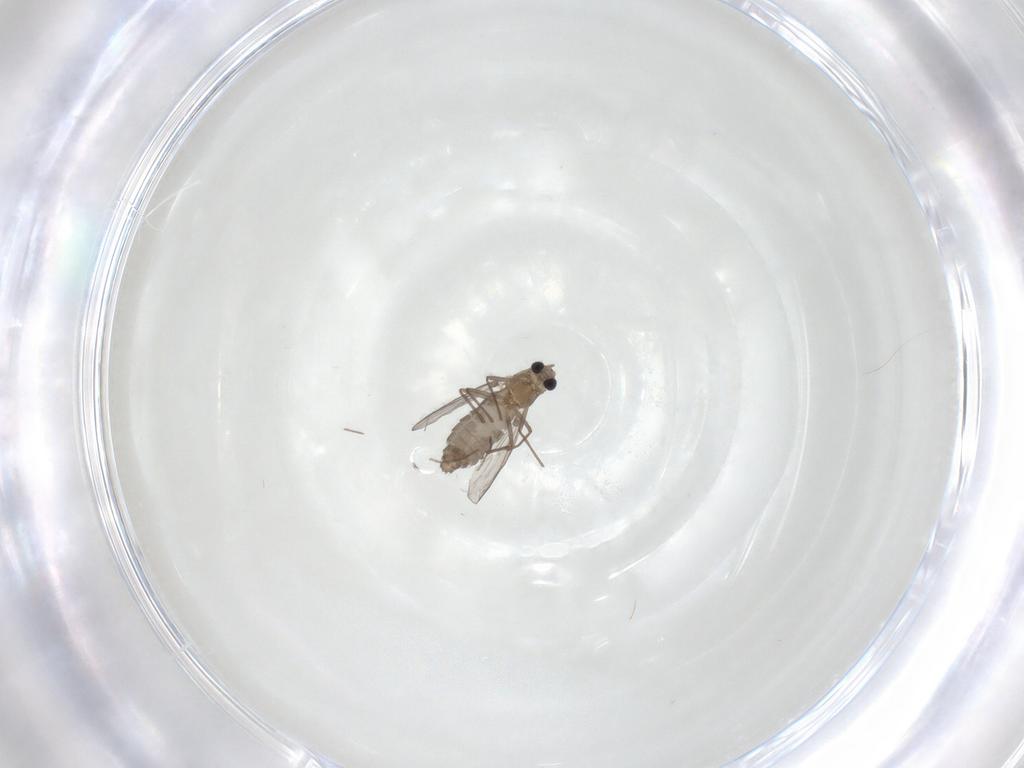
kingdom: Animalia
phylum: Arthropoda
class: Insecta
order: Diptera
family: Chironomidae
